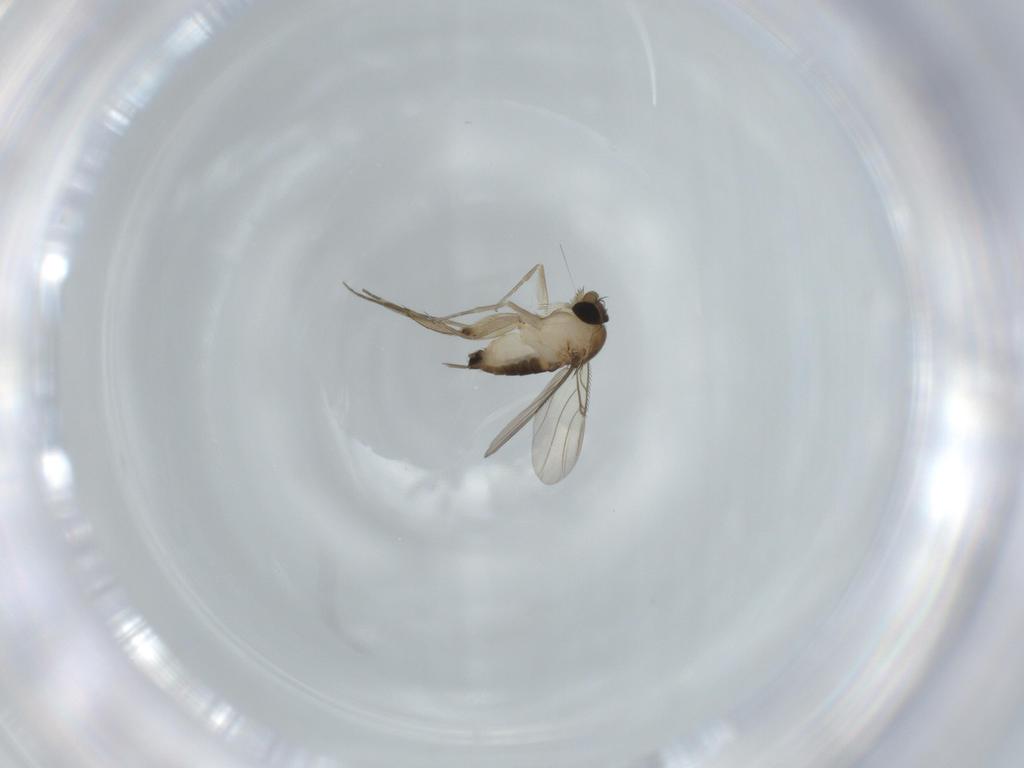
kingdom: Animalia
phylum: Arthropoda
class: Insecta
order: Diptera
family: Phoridae
